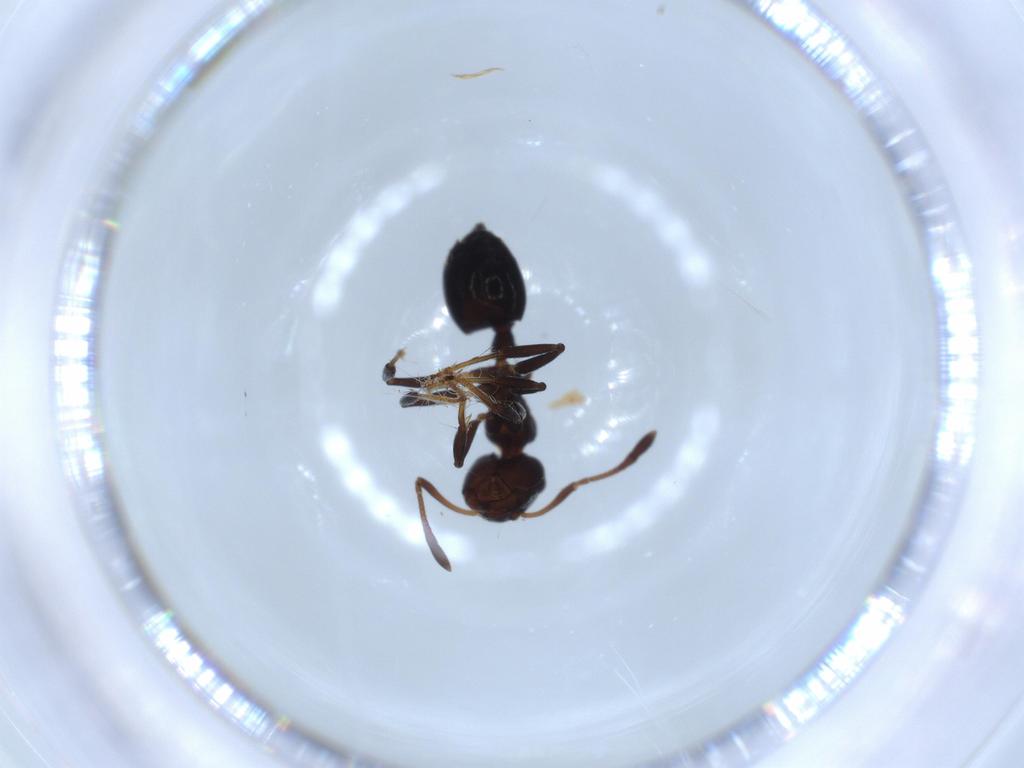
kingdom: Animalia
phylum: Arthropoda
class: Insecta
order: Hymenoptera
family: Formicidae
